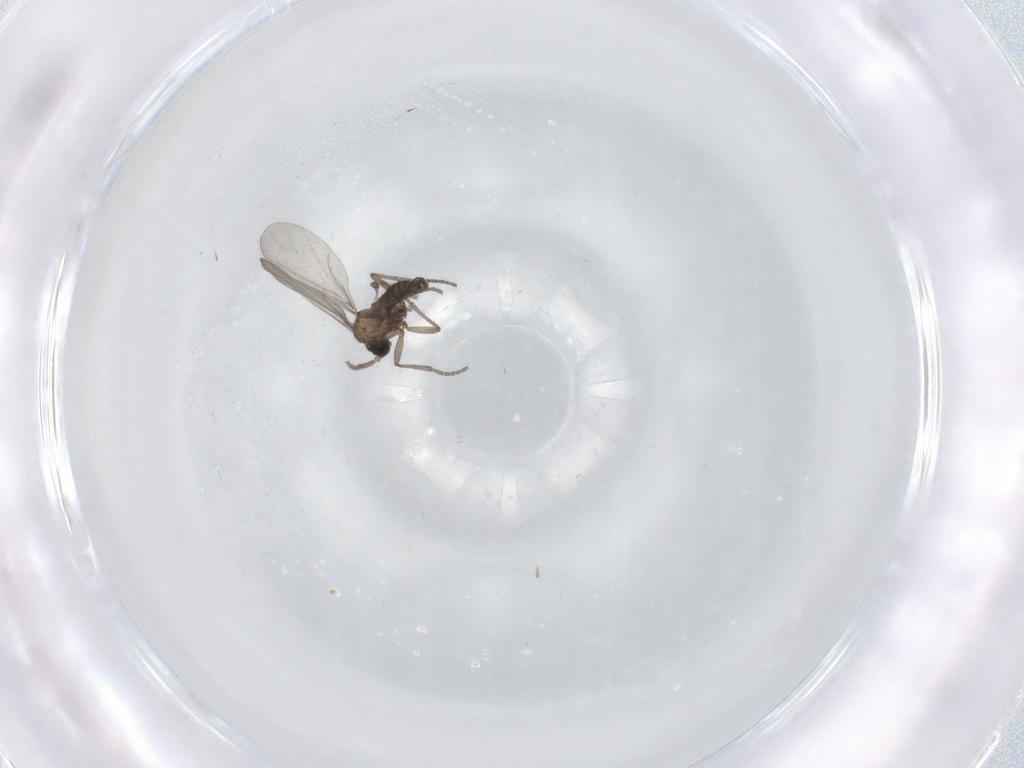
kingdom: Animalia
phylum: Arthropoda
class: Insecta
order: Diptera
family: Sciaridae
